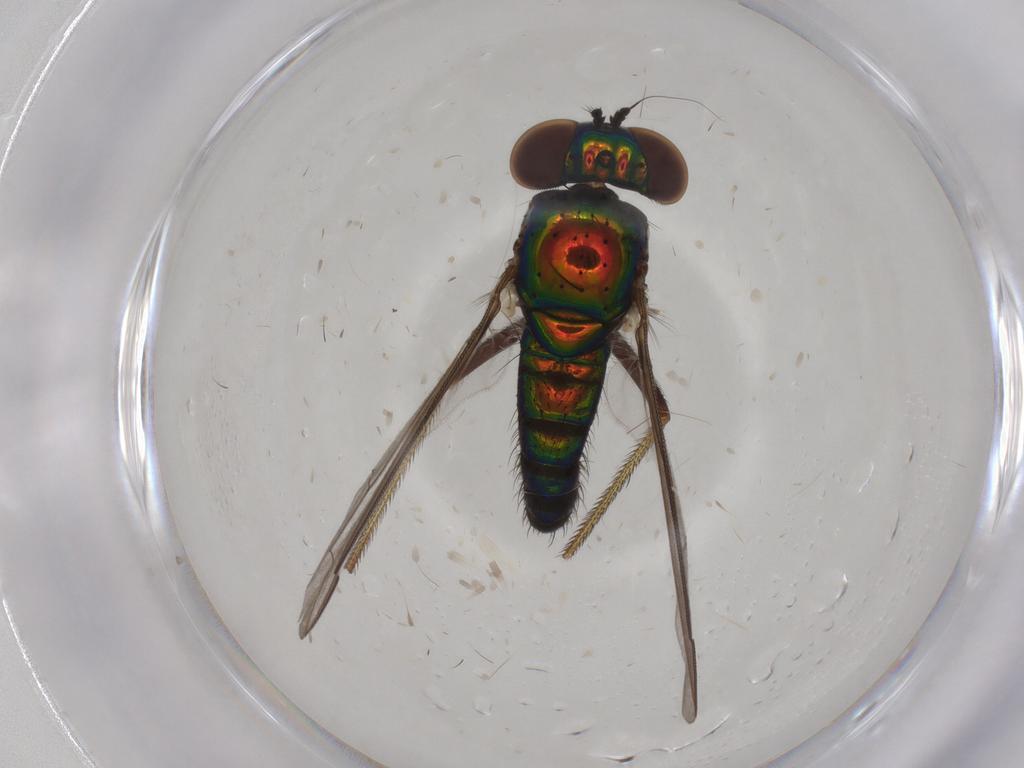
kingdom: Animalia
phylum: Arthropoda
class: Insecta
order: Diptera
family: Dolichopodidae
